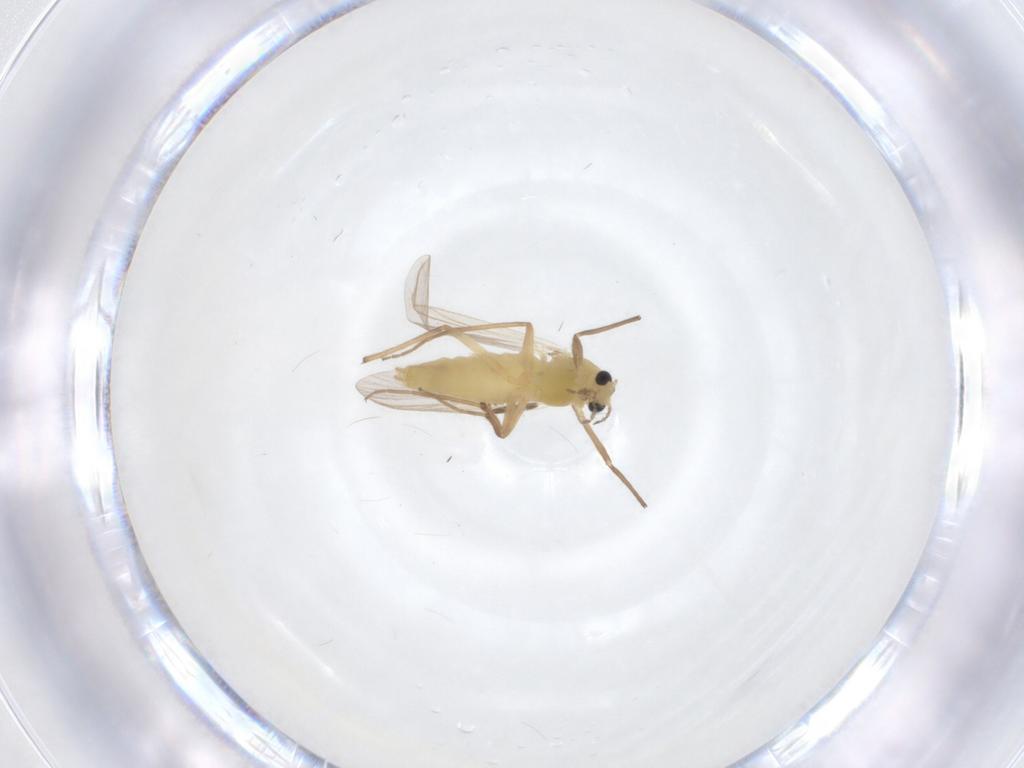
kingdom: Animalia
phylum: Arthropoda
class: Insecta
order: Diptera
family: Chironomidae
